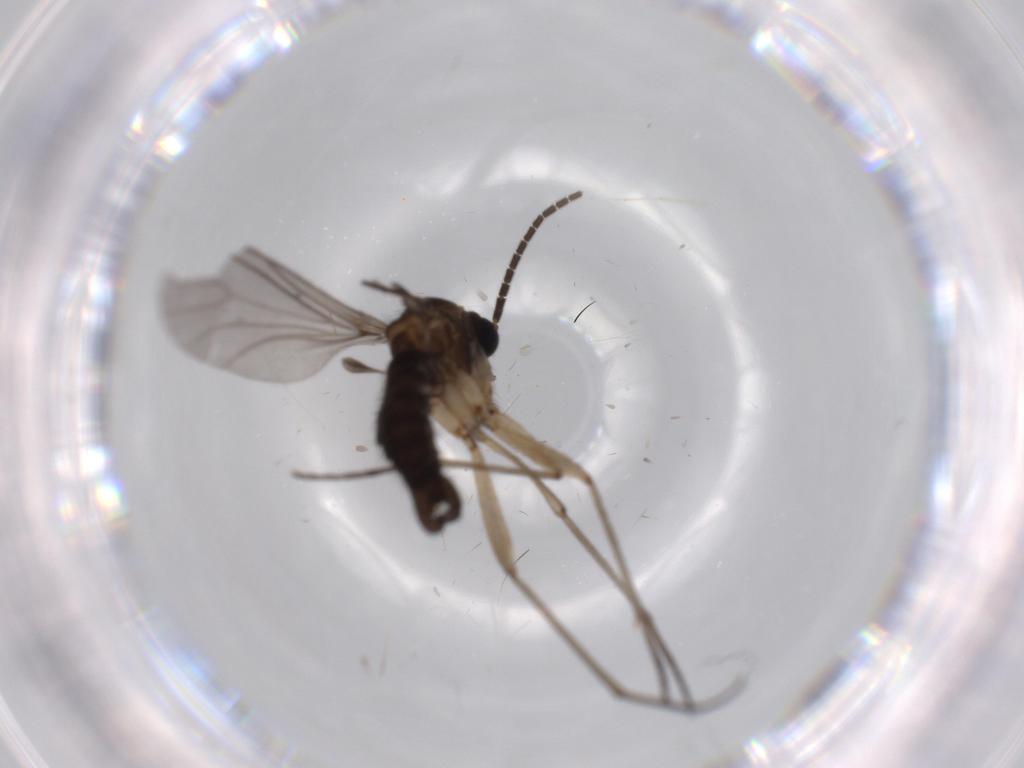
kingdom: Animalia
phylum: Arthropoda
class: Insecta
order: Diptera
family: Sciaridae
